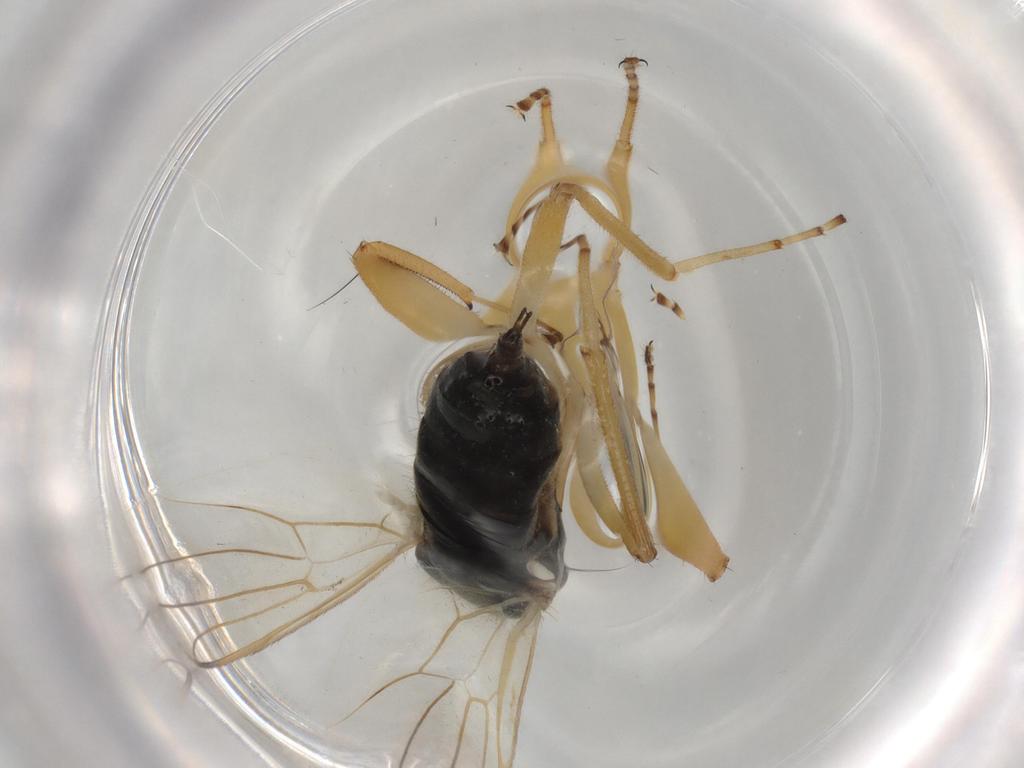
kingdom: Animalia
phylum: Arthropoda
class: Insecta
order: Diptera
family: Hybotidae
